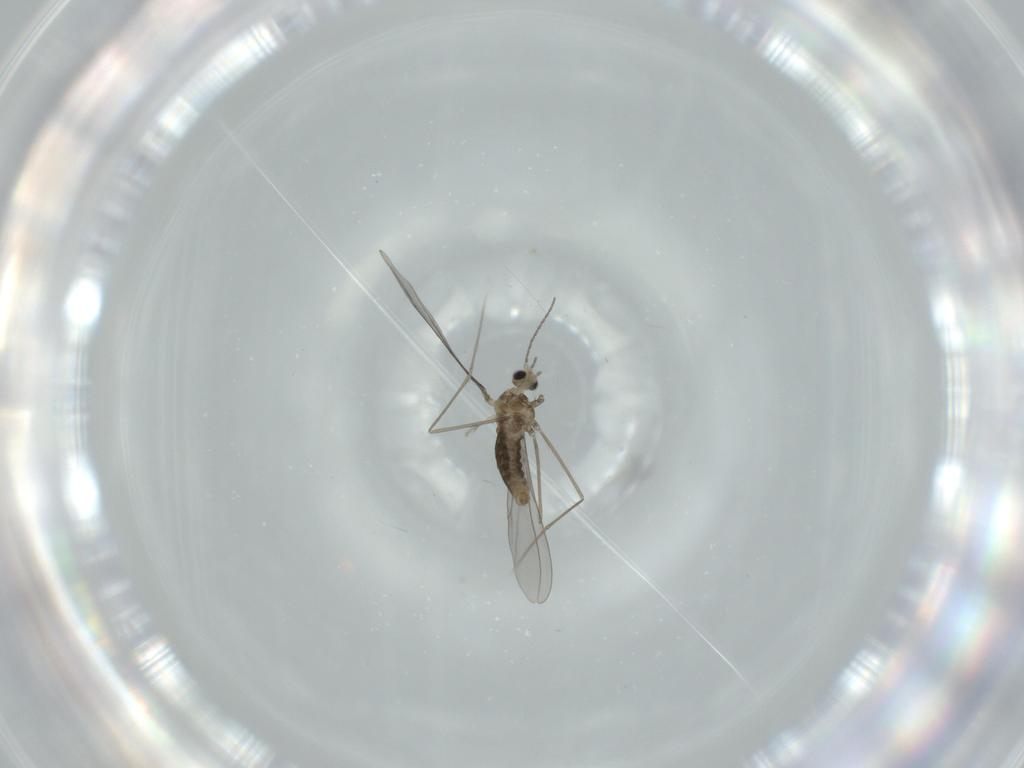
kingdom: Animalia
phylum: Arthropoda
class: Insecta
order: Diptera
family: Cecidomyiidae
